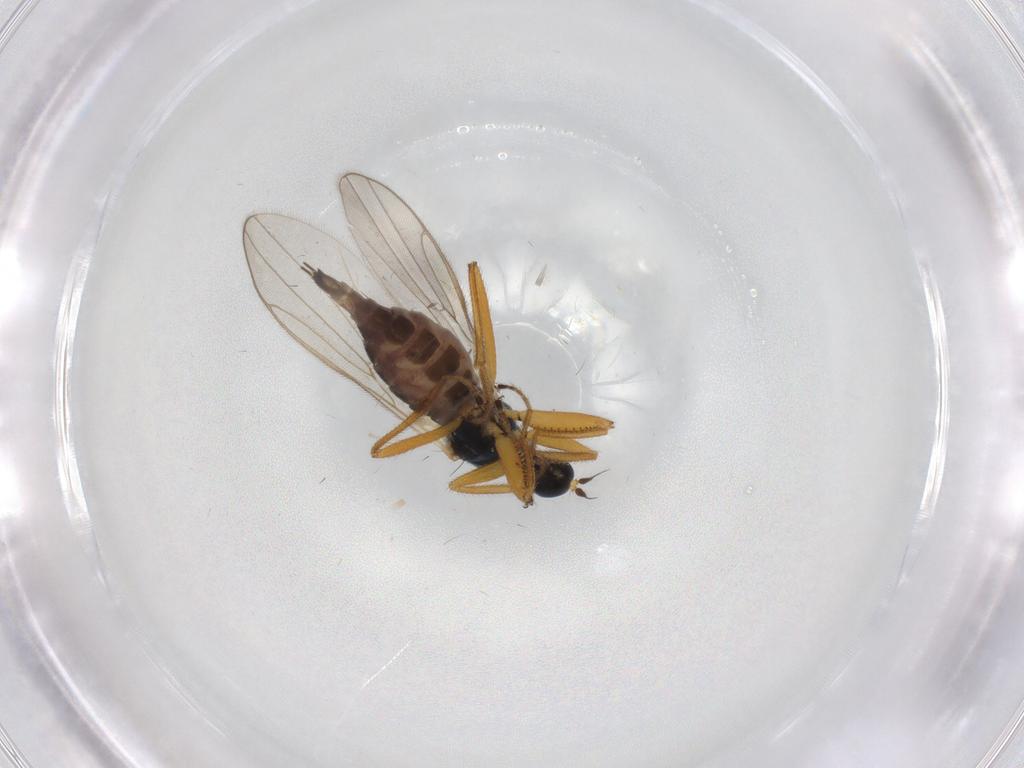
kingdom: Animalia
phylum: Arthropoda
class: Insecta
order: Diptera
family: Hybotidae
